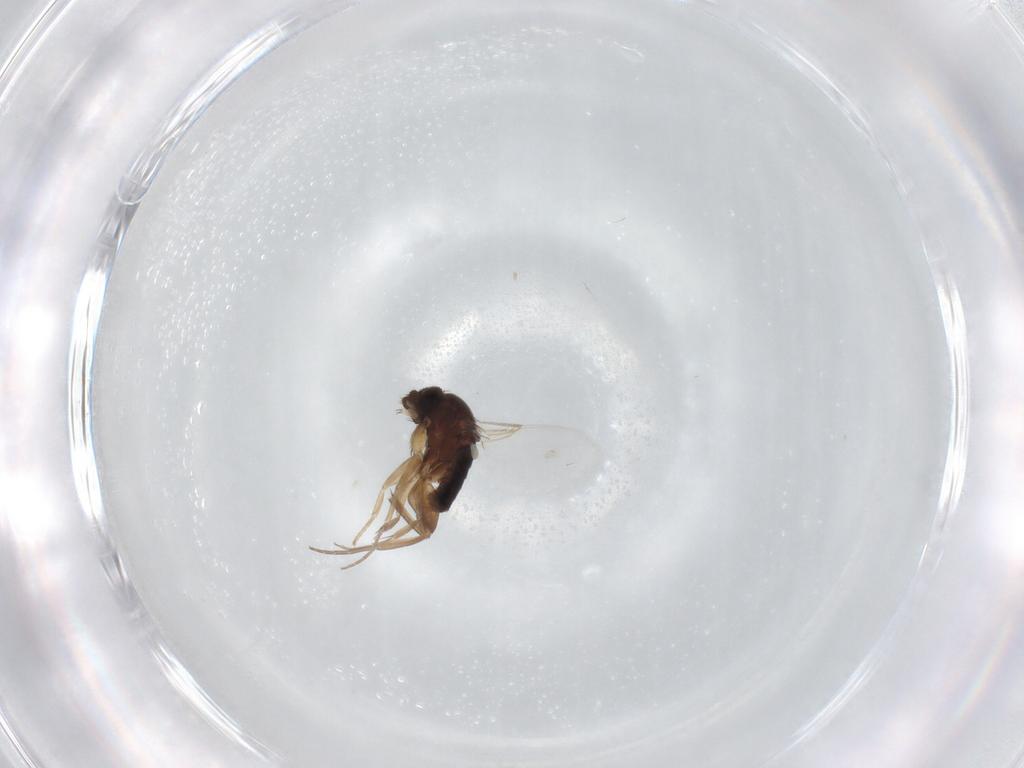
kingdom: Animalia
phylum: Arthropoda
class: Insecta
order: Diptera
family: Phoridae
